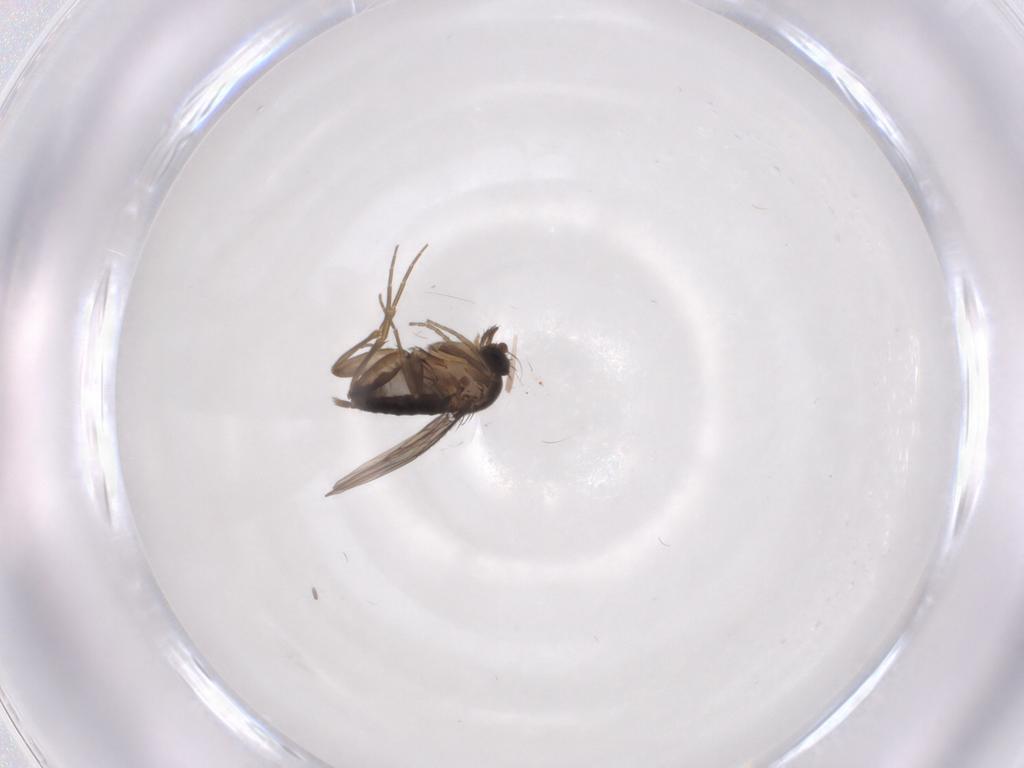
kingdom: Animalia
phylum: Arthropoda
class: Insecta
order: Diptera
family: Phoridae
